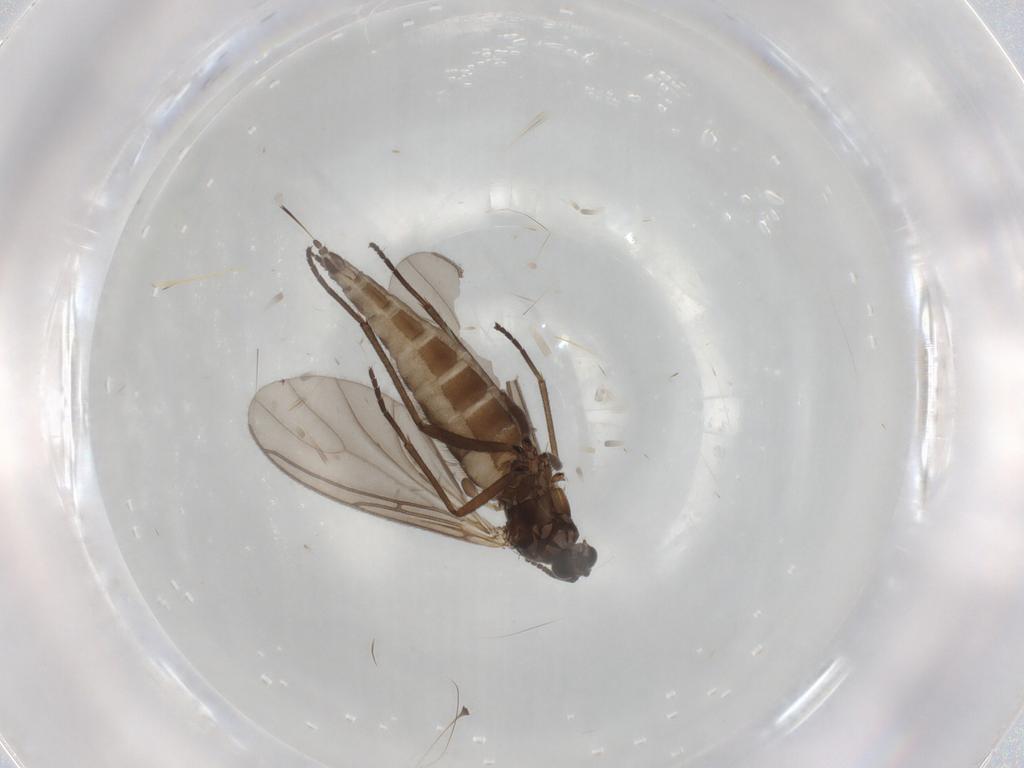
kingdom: Animalia
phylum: Arthropoda
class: Insecta
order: Diptera
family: Sciaridae
